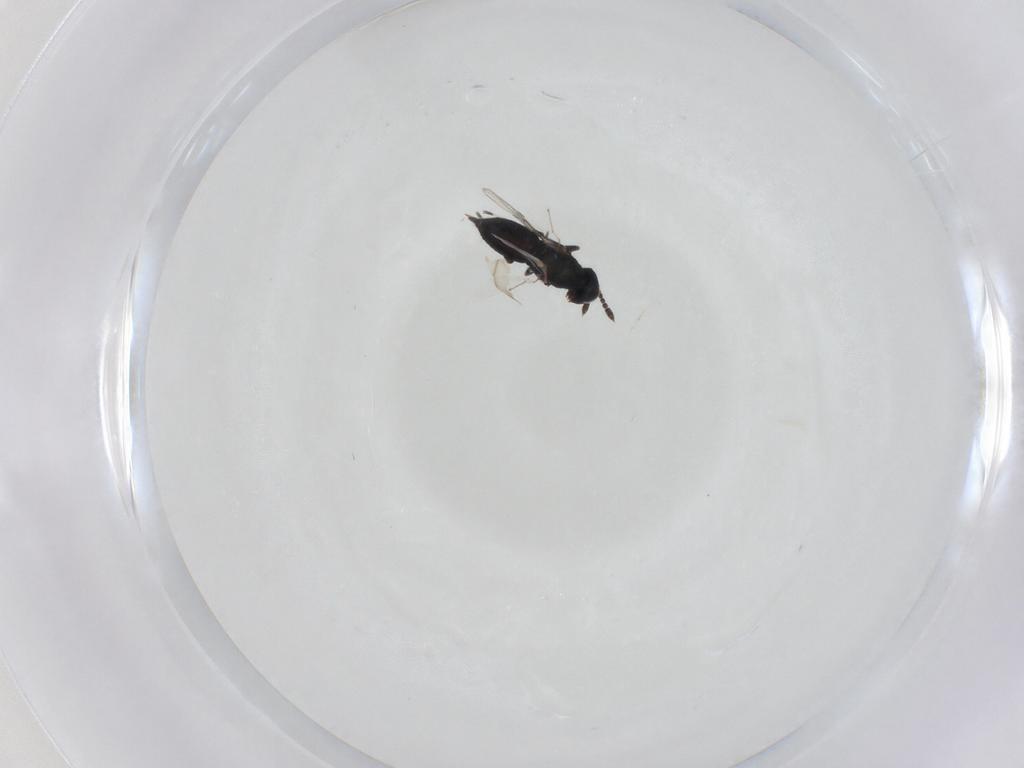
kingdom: Animalia
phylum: Arthropoda
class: Insecta
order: Hymenoptera
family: Eulophidae
